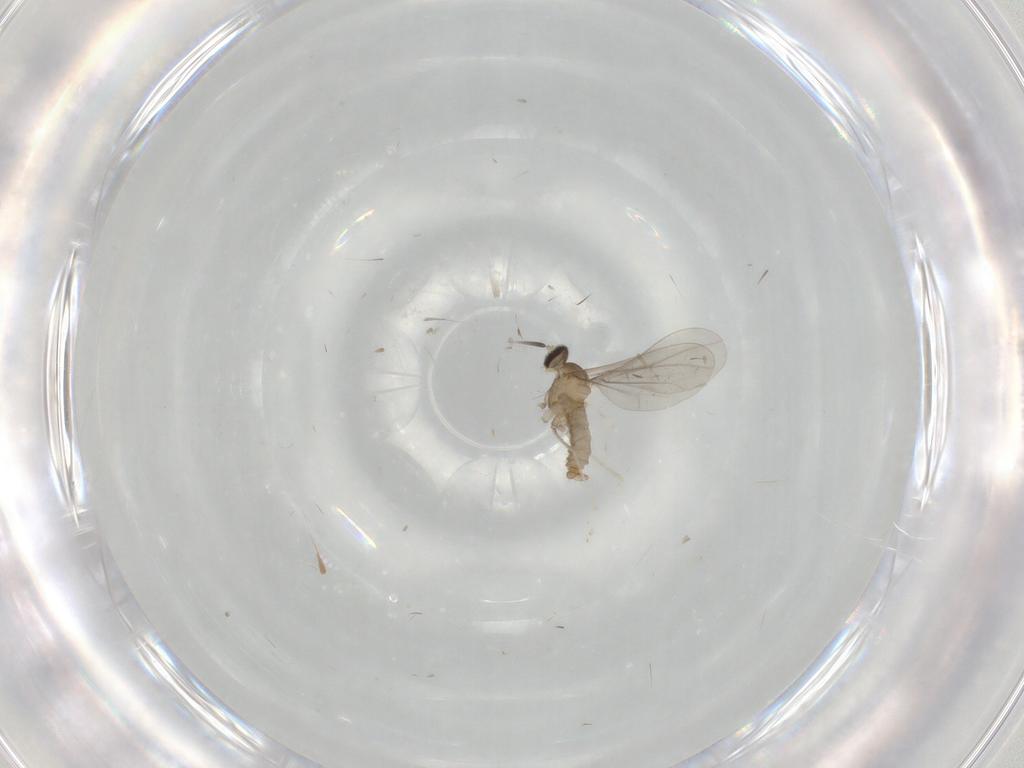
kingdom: Animalia
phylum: Arthropoda
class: Insecta
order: Diptera
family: Cecidomyiidae
